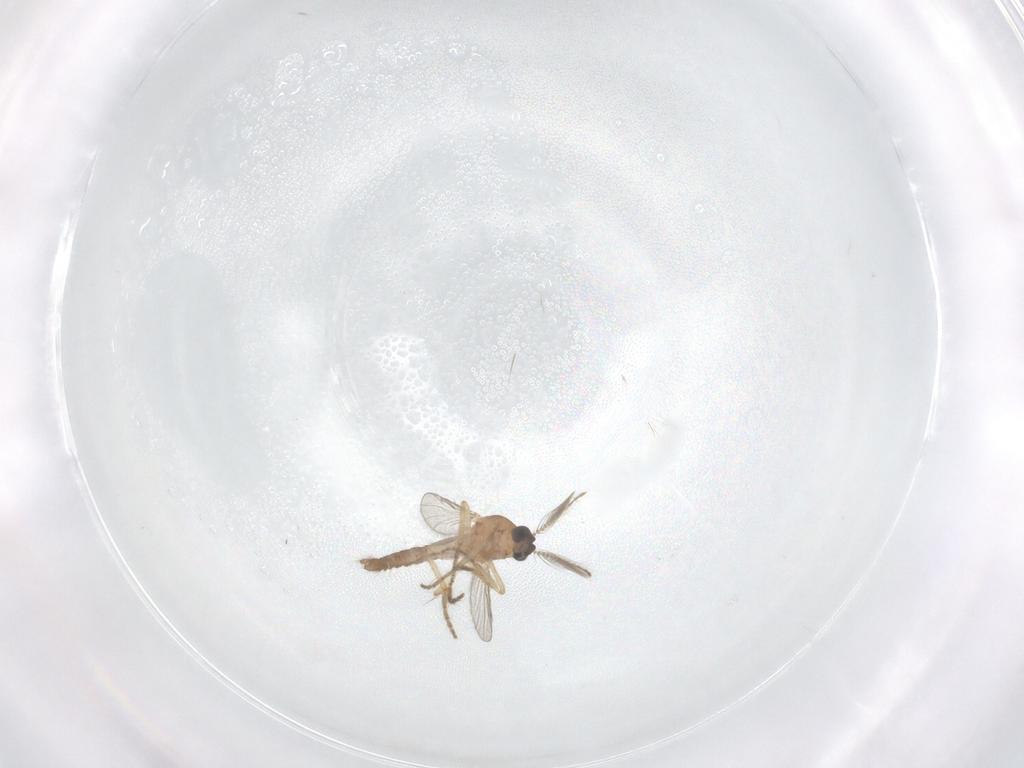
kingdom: Animalia
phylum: Arthropoda
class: Insecta
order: Diptera
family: Ceratopogonidae
